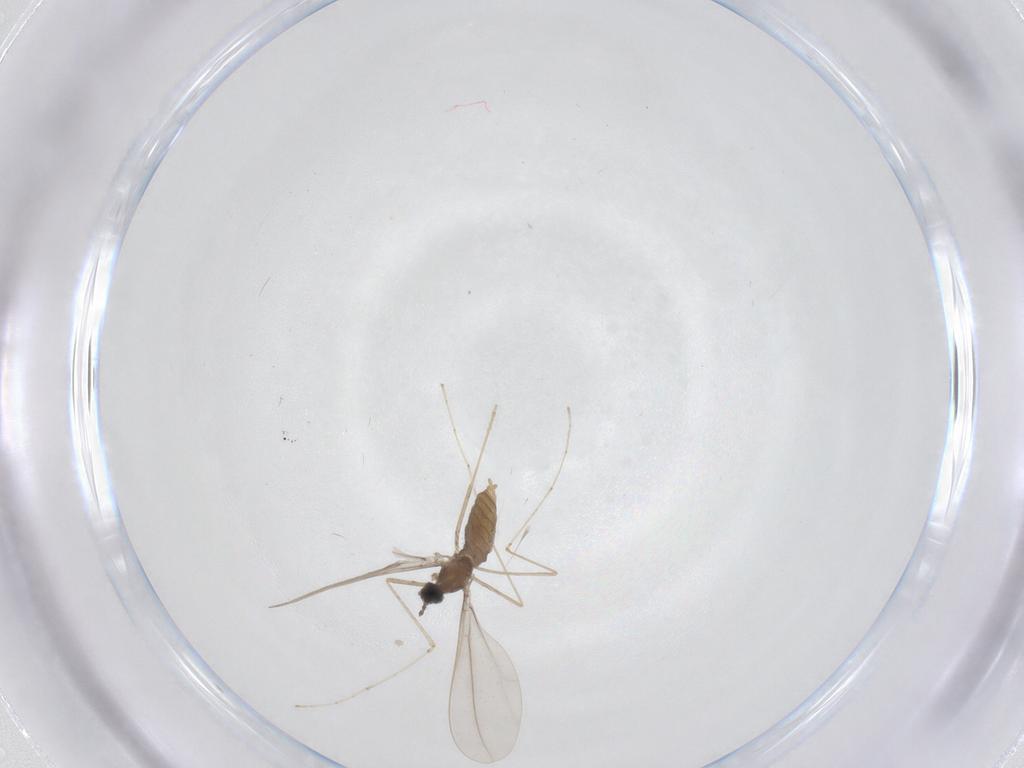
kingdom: Animalia
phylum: Arthropoda
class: Insecta
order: Diptera
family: Cecidomyiidae
